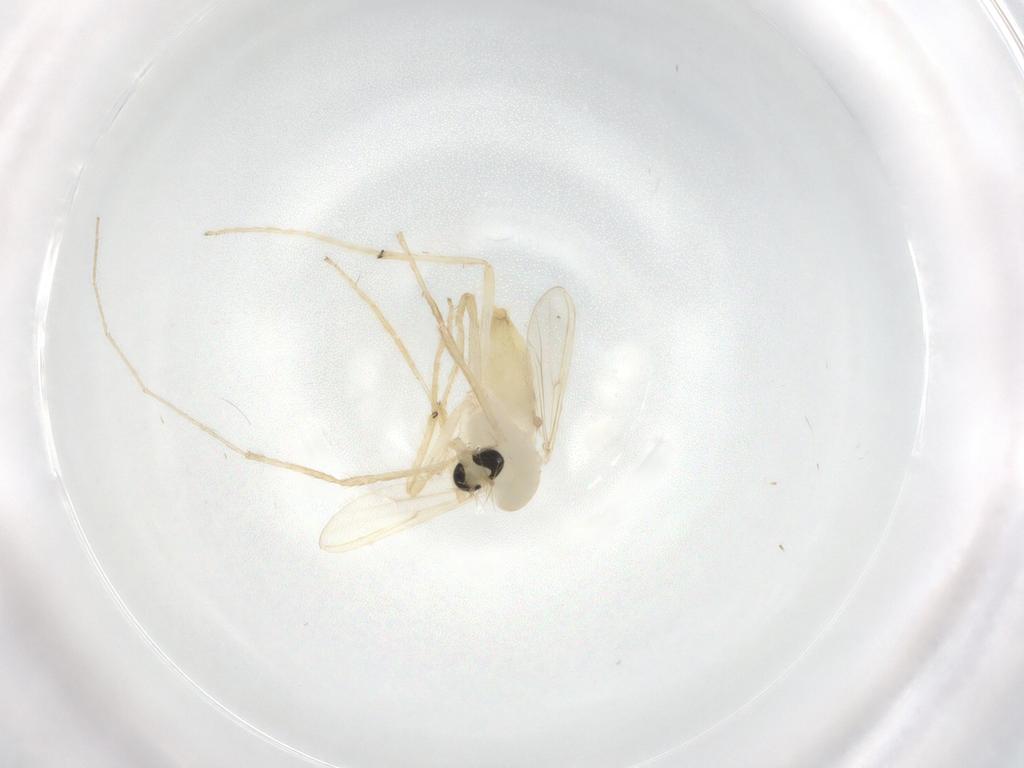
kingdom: Animalia
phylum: Arthropoda
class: Insecta
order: Diptera
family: Chironomidae
